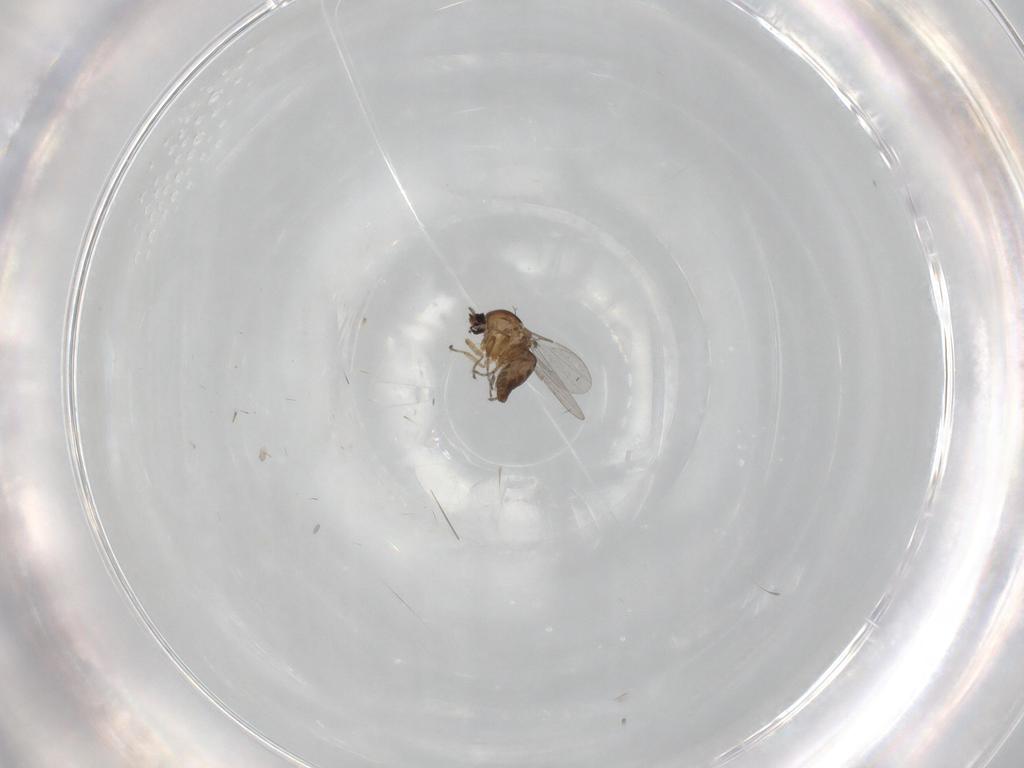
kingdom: Animalia
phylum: Arthropoda
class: Insecta
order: Diptera
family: Ceratopogonidae
